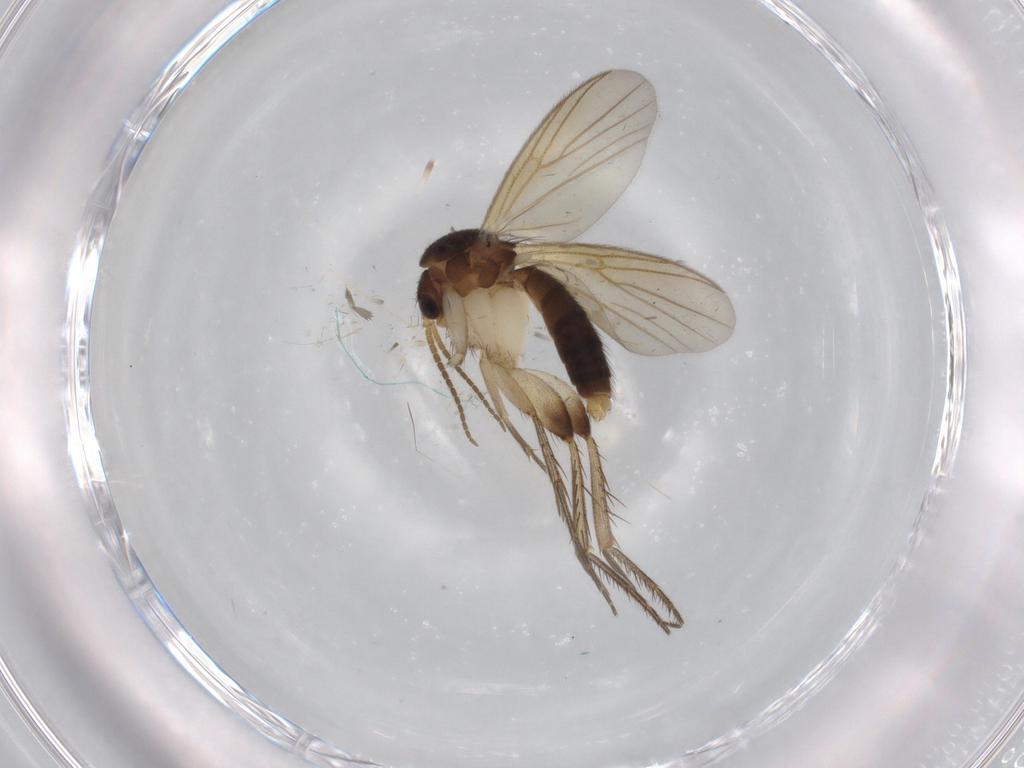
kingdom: Animalia
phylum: Arthropoda
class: Insecta
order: Diptera
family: Mycetophilidae
